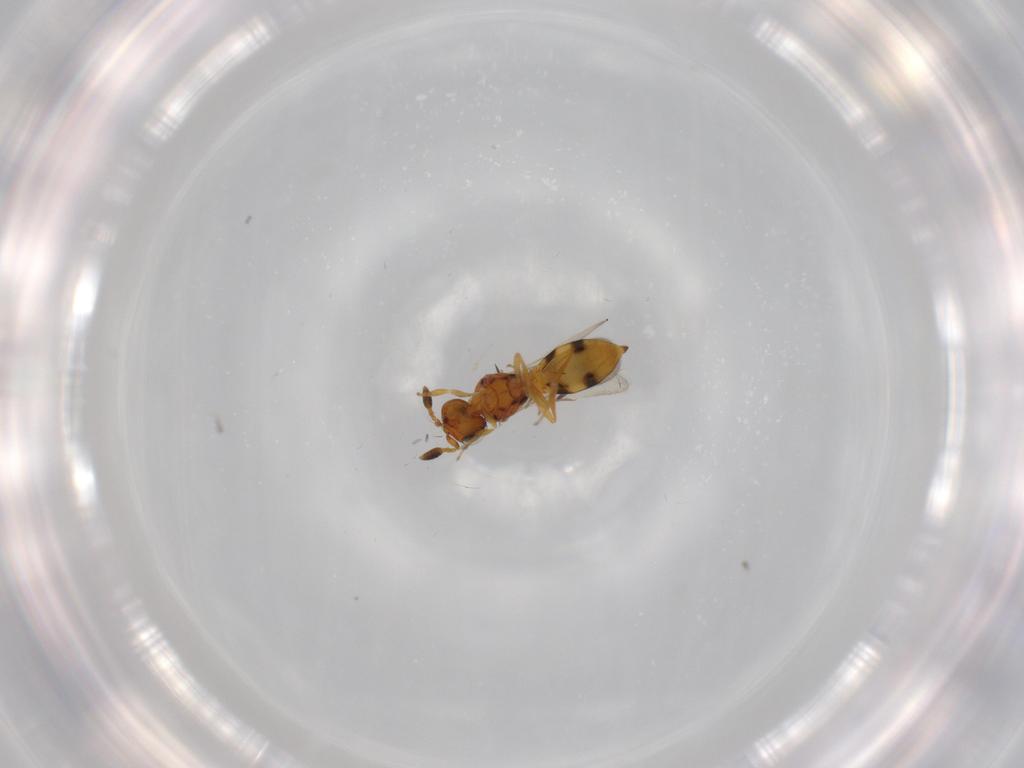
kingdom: Animalia
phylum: Arthropoda
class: Insecta
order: Hymenoptera
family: Scelionidae
